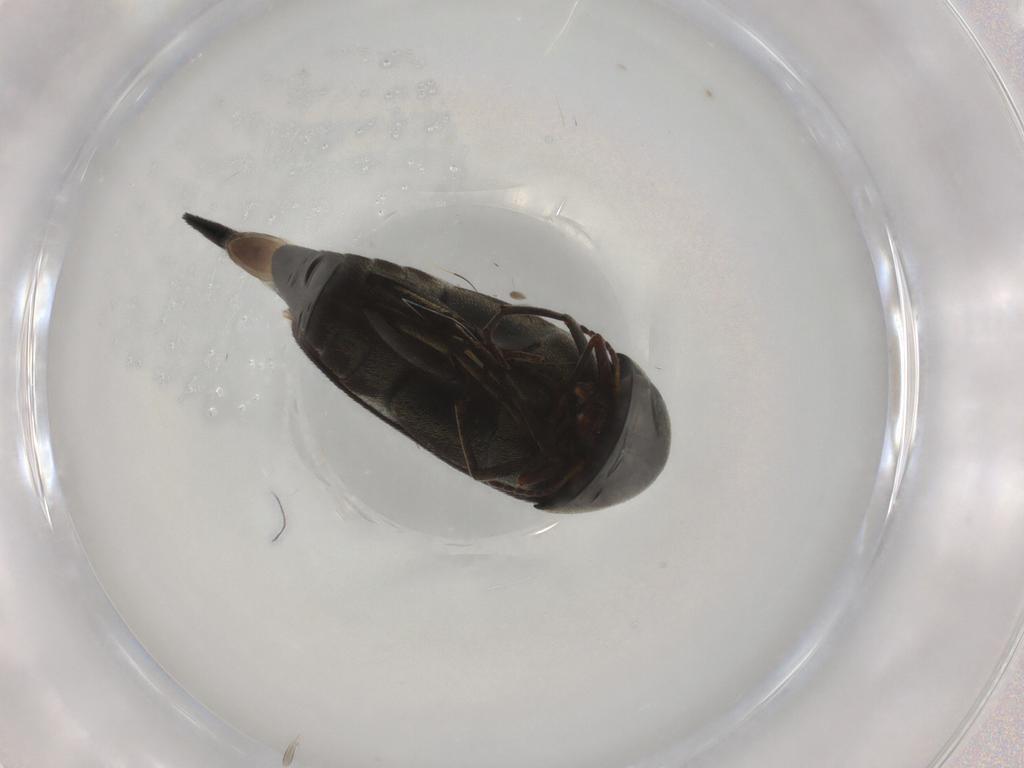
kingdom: Animalia
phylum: Arthropoda
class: Insecta
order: Coleoptera
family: Mordellidae
